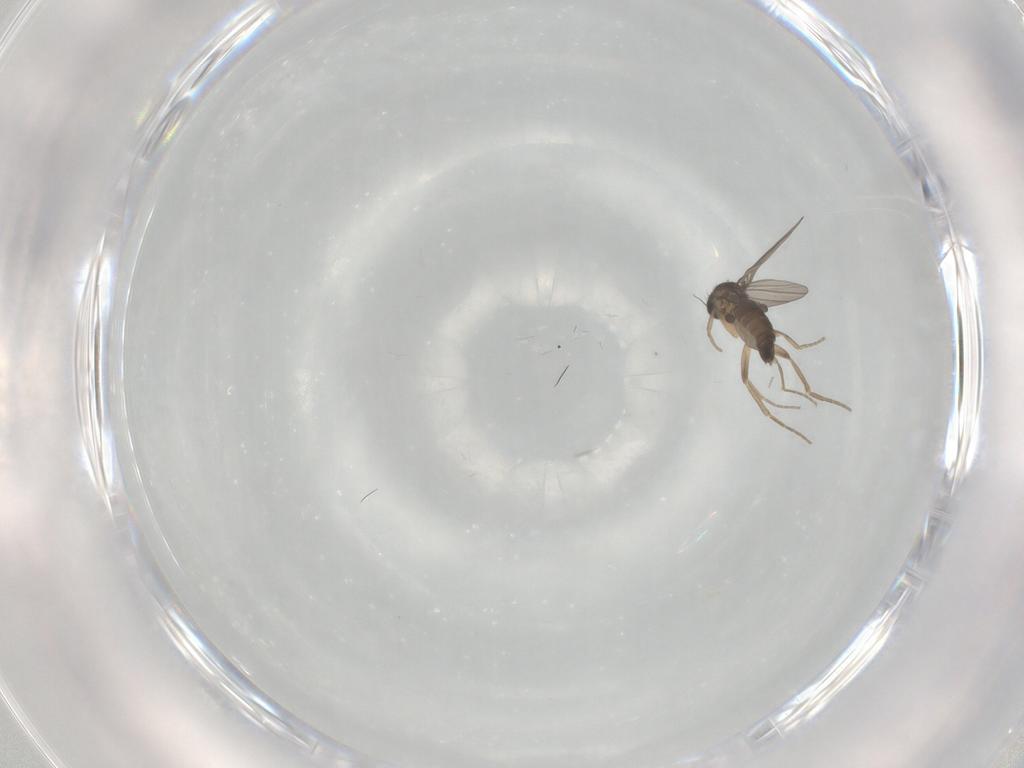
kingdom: Animalia
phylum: Arthropoda
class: Insecta
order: Diptera
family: Phoridae
